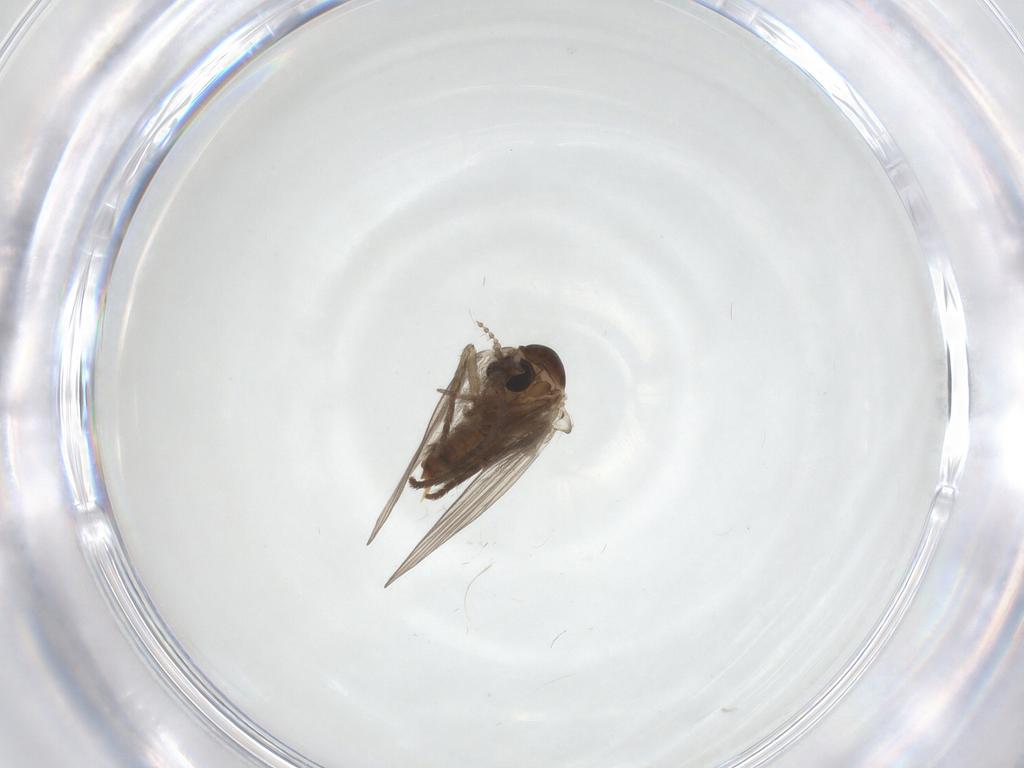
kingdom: Animalia
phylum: Arthropoda
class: Insecta
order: Diptera
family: Psychodidae
